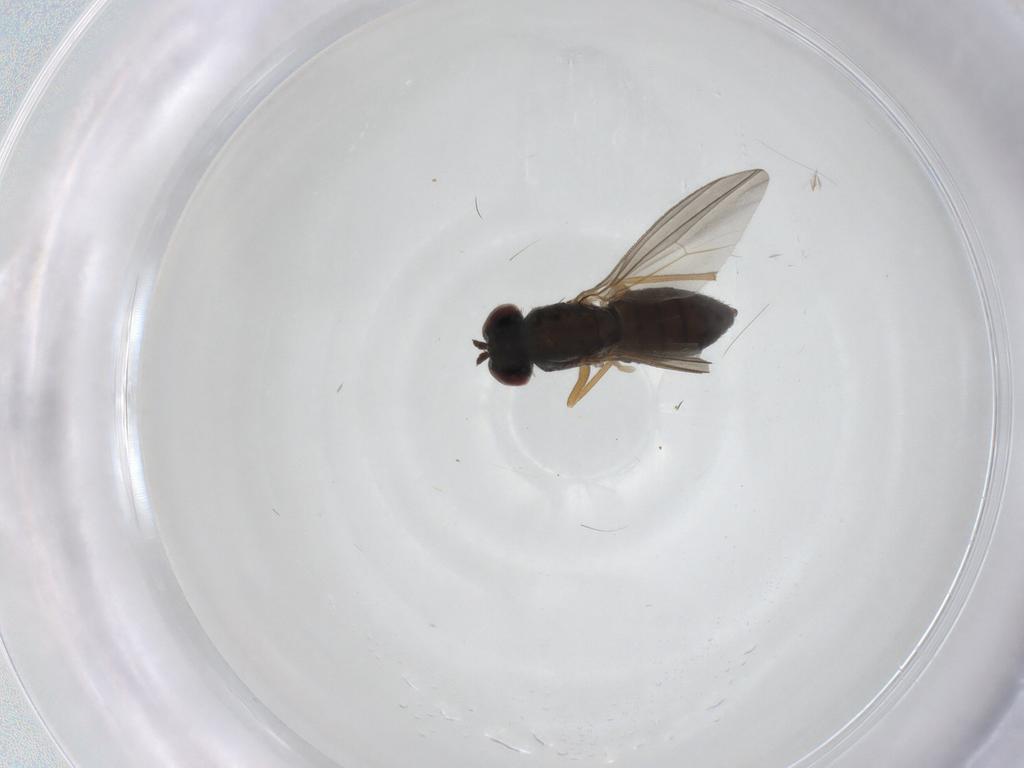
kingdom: Animalia
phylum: Arthropoda
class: Insecta
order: Diptera
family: Dolichopodidae
